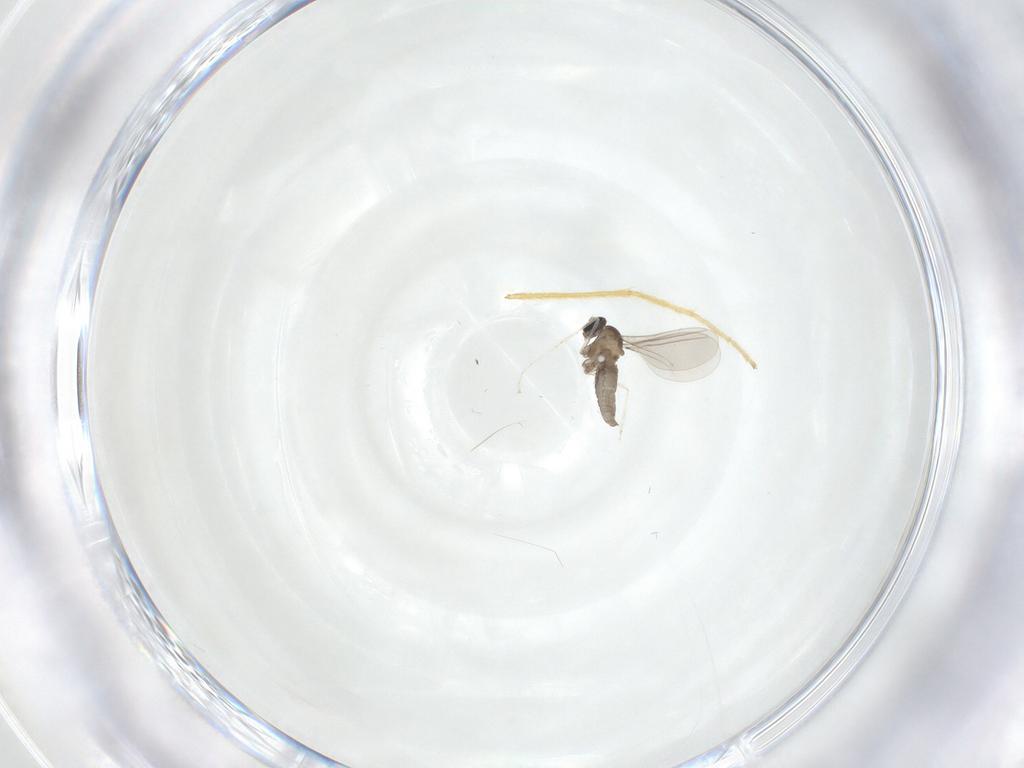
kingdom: Animalia
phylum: Arthropoda
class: Insecta
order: Diptera
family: Cecidomyiidae
